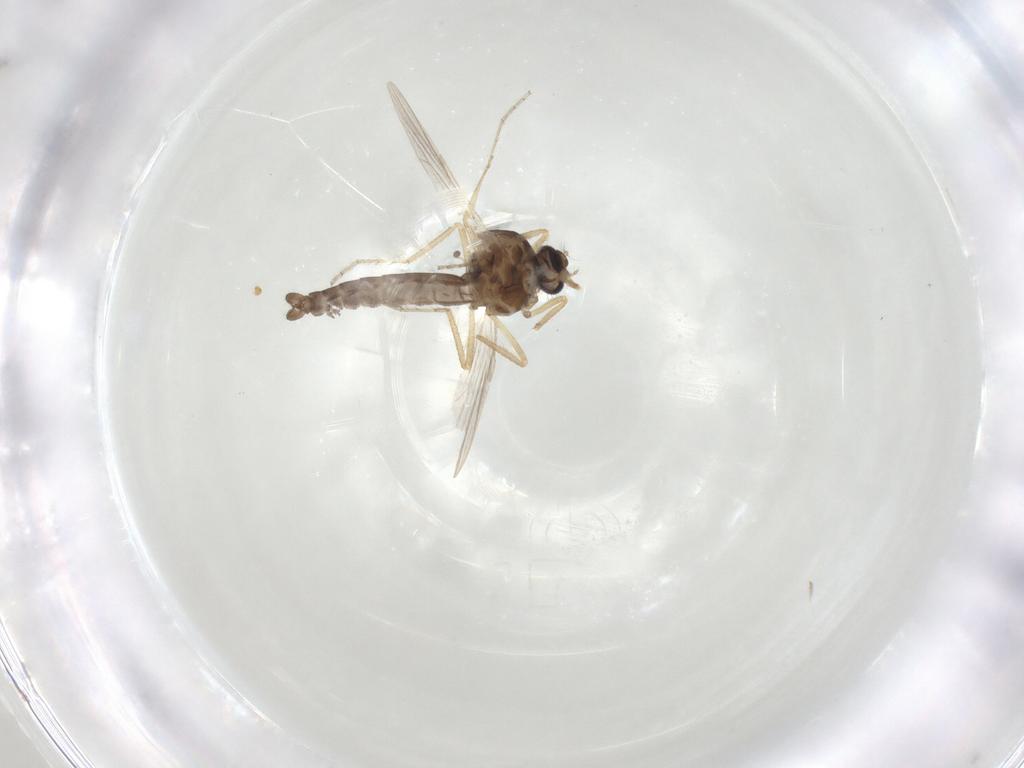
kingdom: Animalia
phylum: Arthropoda
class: Insecta
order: Diptera
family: Ceratopogonidae
